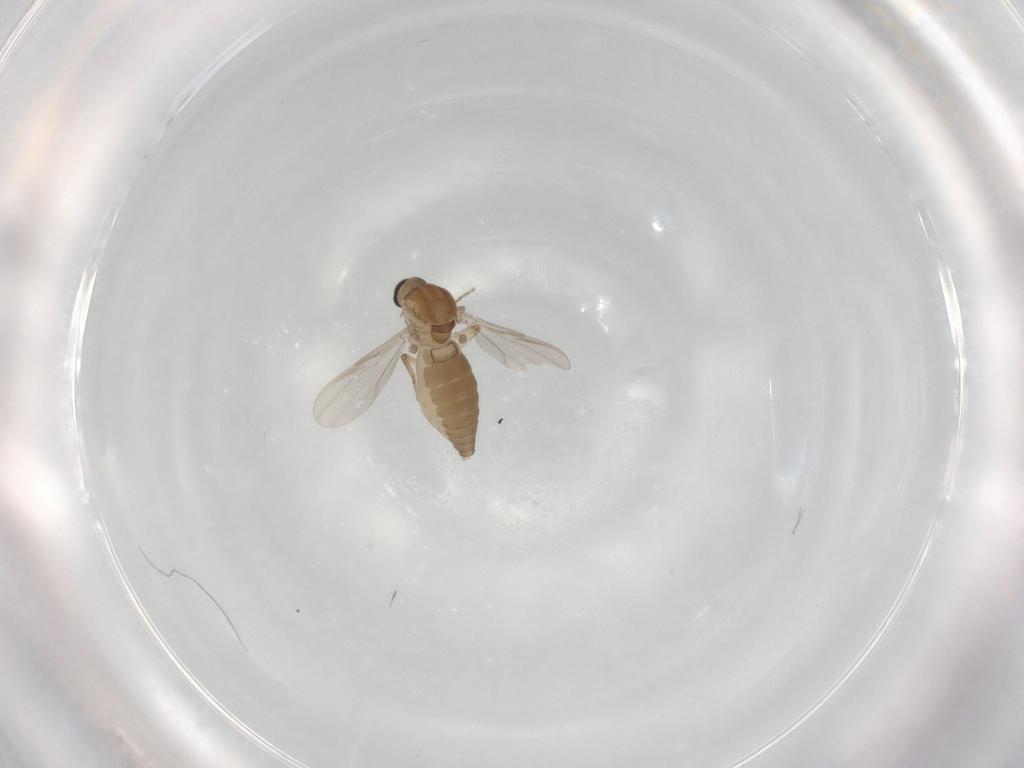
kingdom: Animalia
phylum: Arthropoda
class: Insecta
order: Diptera
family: Ceratopogonidae
